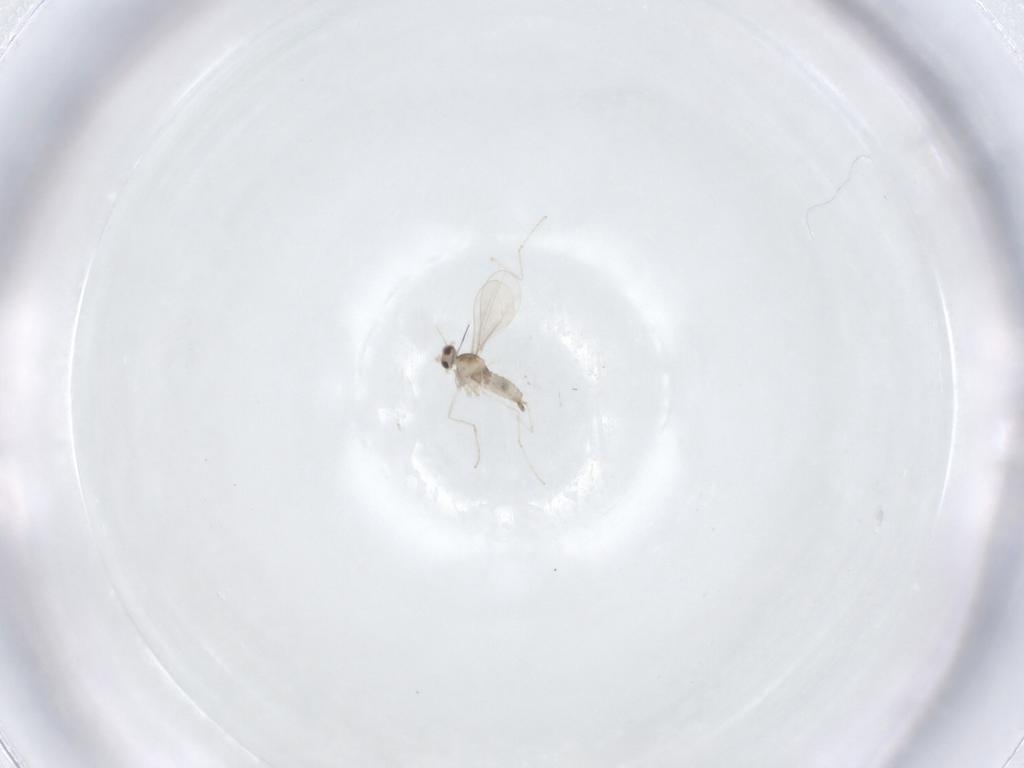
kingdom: Animalia
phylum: Arthropoda
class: Insecta
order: Diptera
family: Cecidomyiidae
